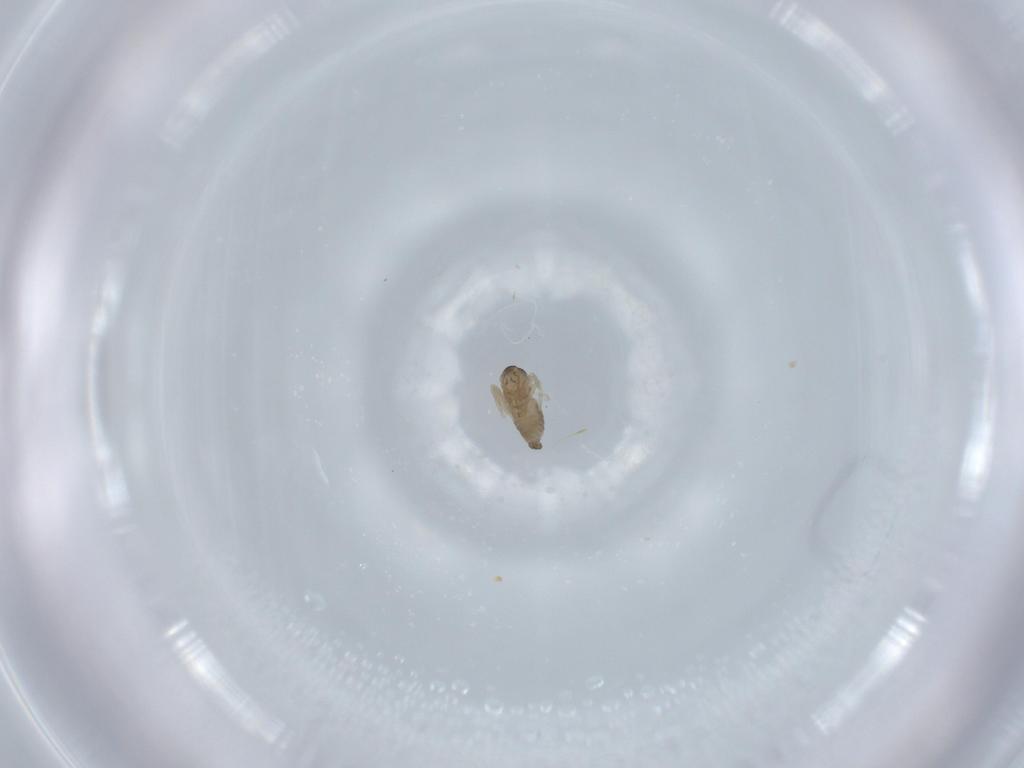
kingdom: Animalia
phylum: Arthropoda
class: Insecta
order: Diptera
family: Cecidomyiidae
